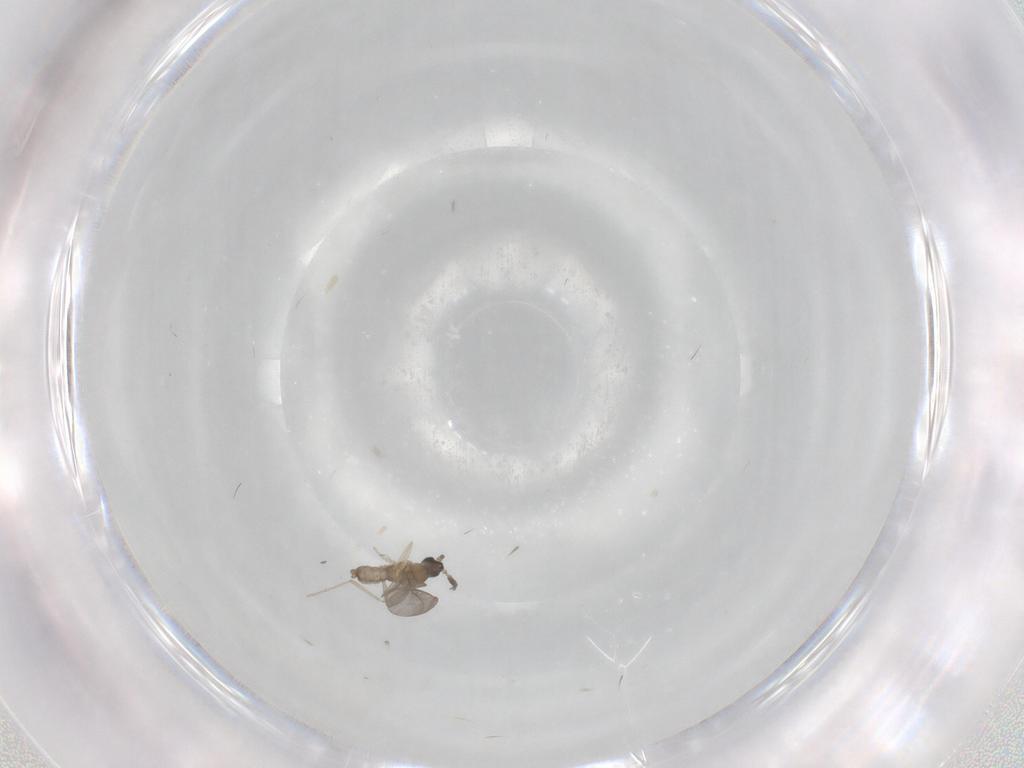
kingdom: Animalia
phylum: Arthropoda
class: Insecta
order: Diptera
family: Cecidomyiidae
